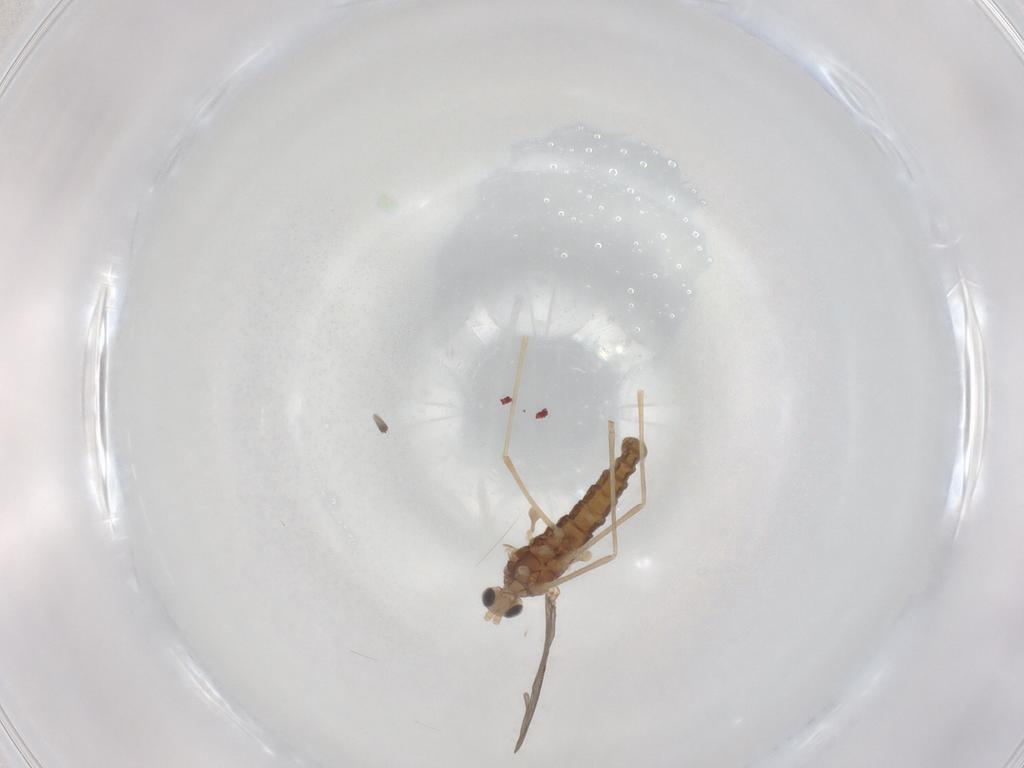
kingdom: Animalia
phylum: Arthropoda
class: Insecta
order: Diptera
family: Cecidomyiidae
